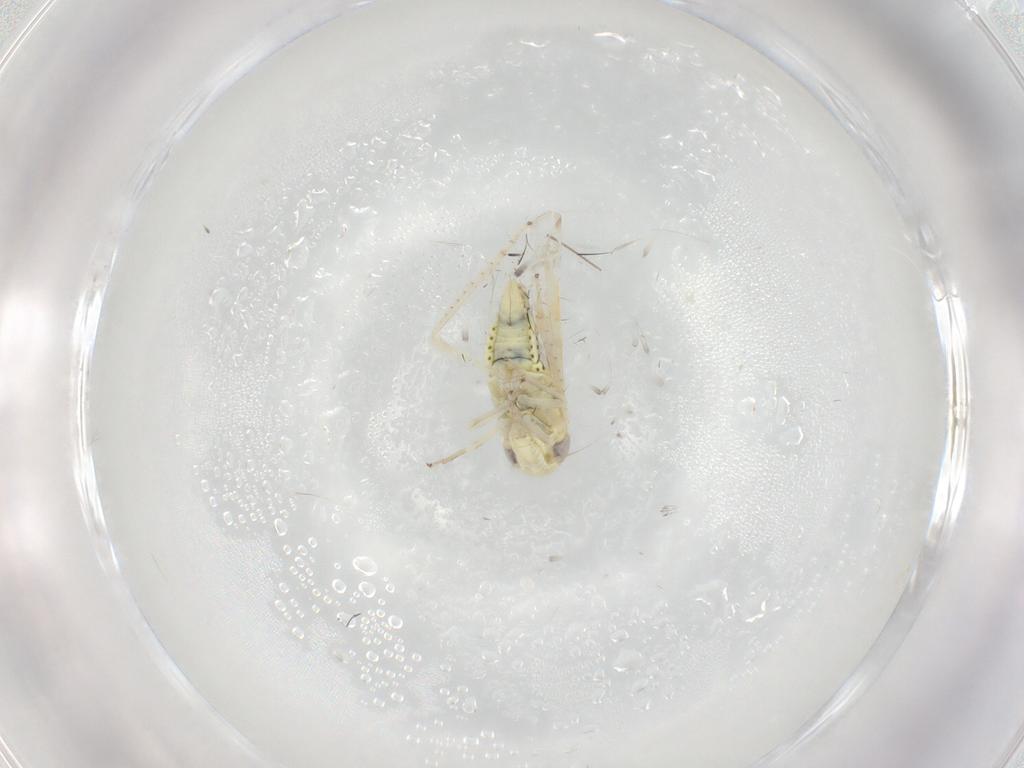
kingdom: Animalia
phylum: Arthropoda
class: Insecta
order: Hemiptera
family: Cicadellidae
